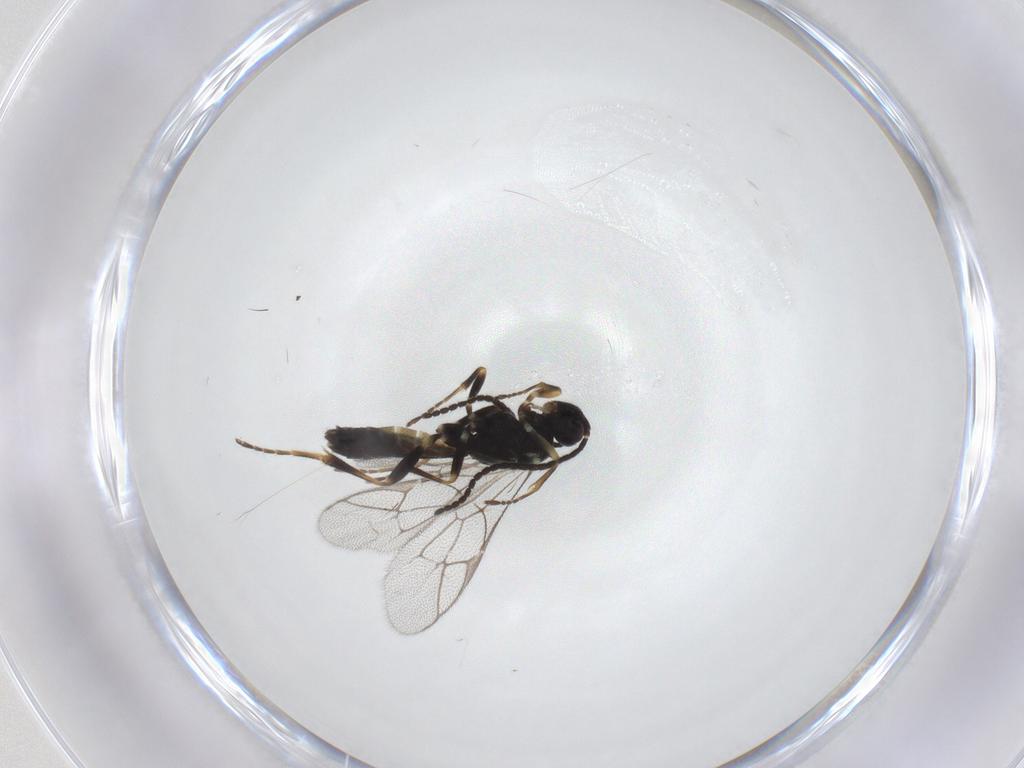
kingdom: Animalia
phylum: Arthropoda
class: Insecta
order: Hymenoptera
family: Ichneumonidae
